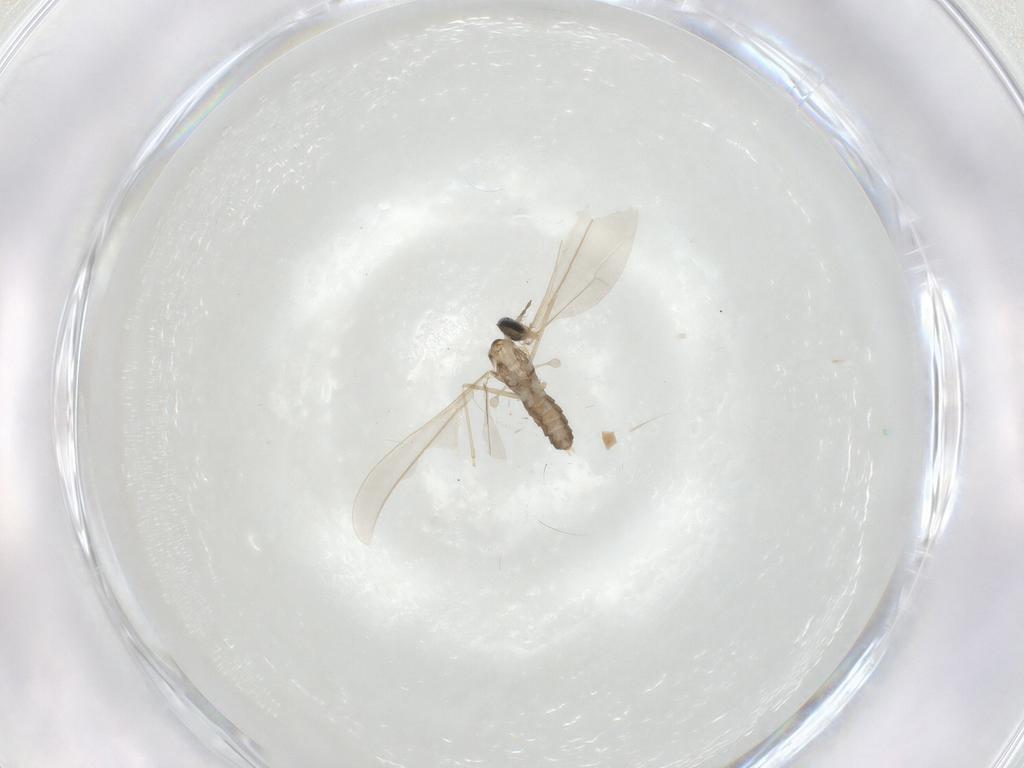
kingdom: Animalia
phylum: Arthropoda
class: Insecta
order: Diptera
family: Muscidae
